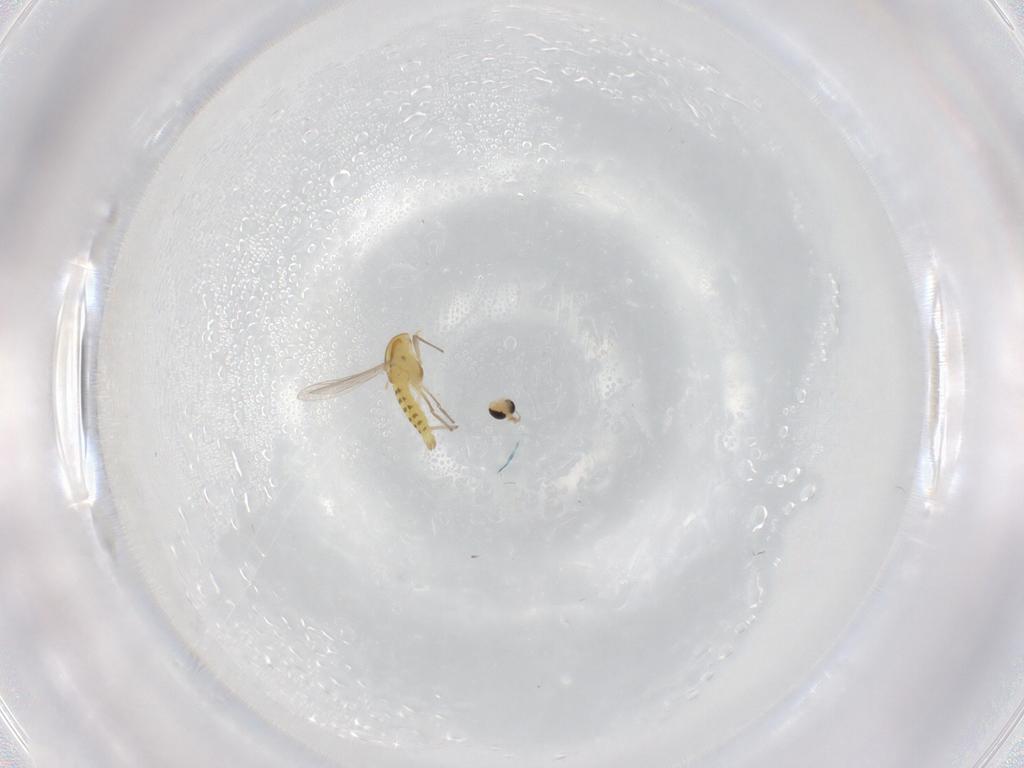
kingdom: Animalia
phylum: Arthropoda
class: Insecta
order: Diptera
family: Chironomidae
